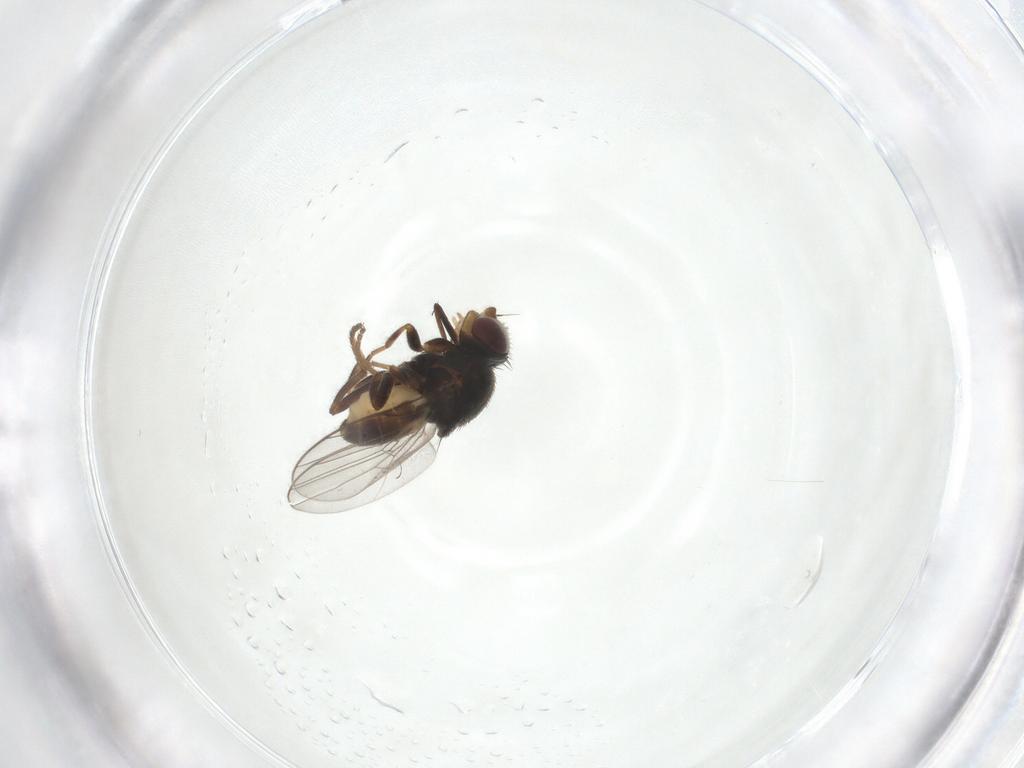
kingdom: Animalia
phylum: Arthropoda
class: Insecta
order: Diptera
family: Chloropidae
